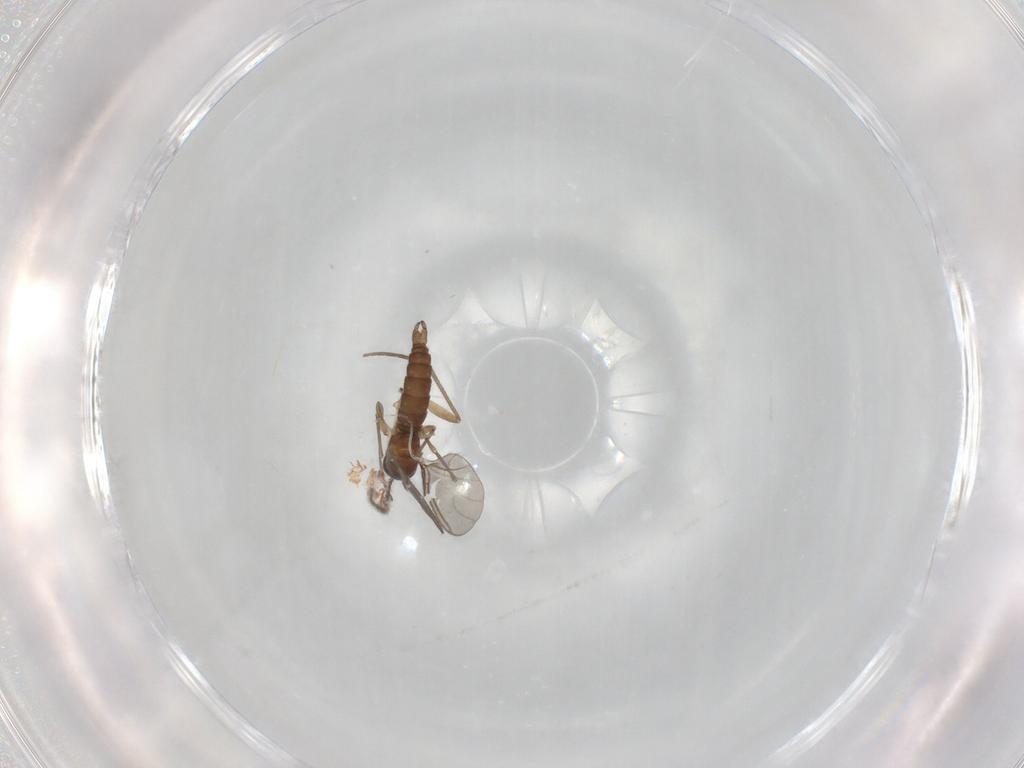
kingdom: Animalia
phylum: Arthropoda
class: Insecta
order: Diptera
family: Sciaridae
